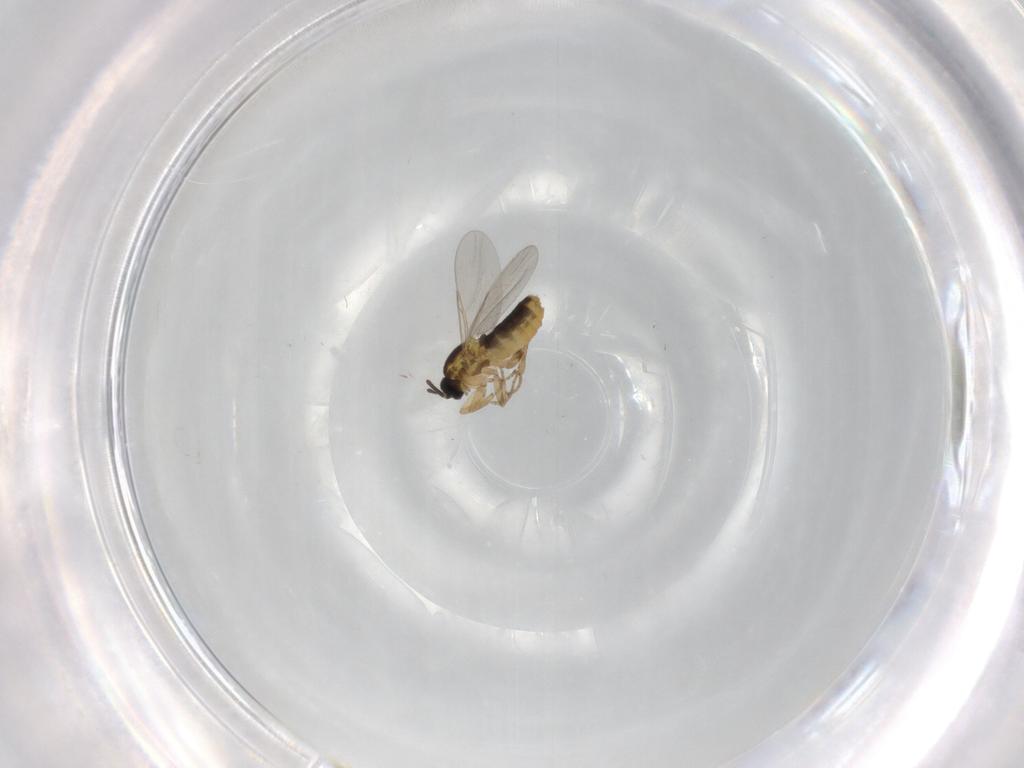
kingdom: Animalia
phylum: Arthropoda
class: Insecta
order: Diptera
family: Scatopsidae
